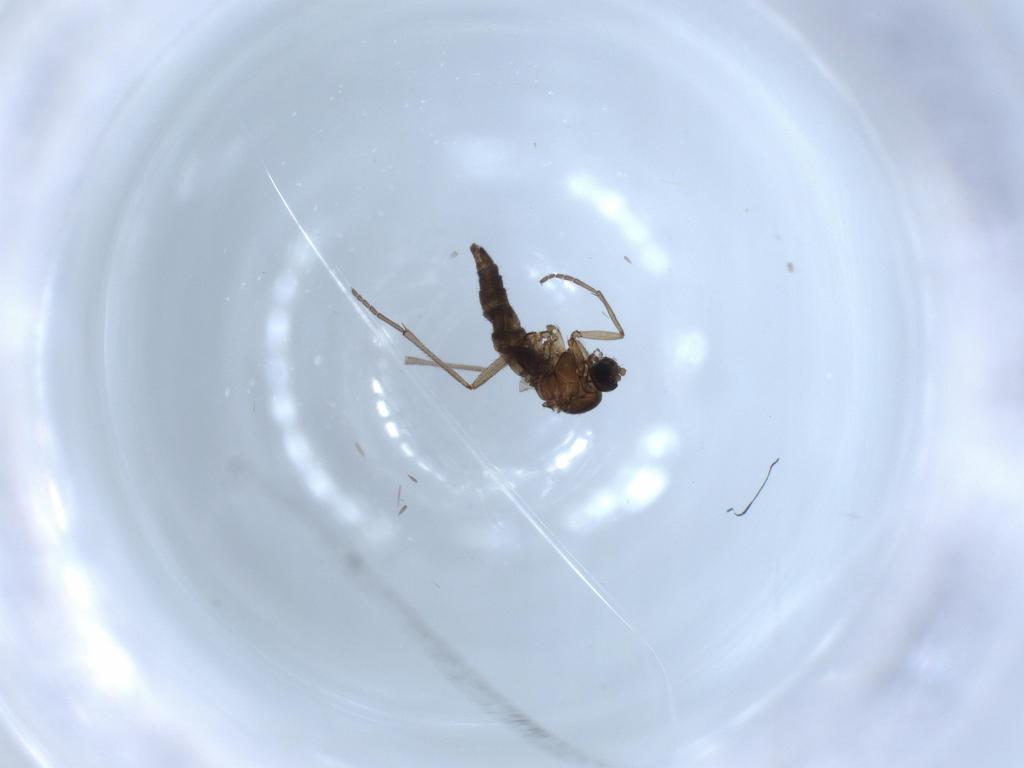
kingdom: Animalia
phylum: Arthropoda
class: Insecta
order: Diptera
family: Sciaridae
